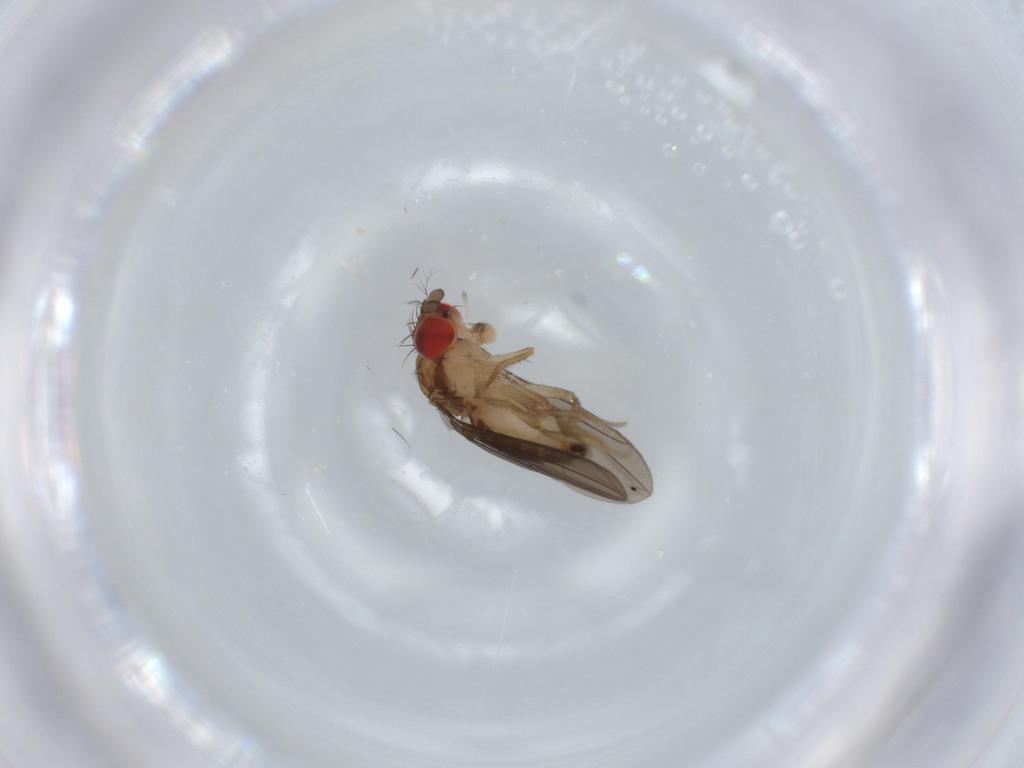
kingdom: Animalia
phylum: Arthropoda
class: Insecta
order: Diptera
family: Drosophilidae
